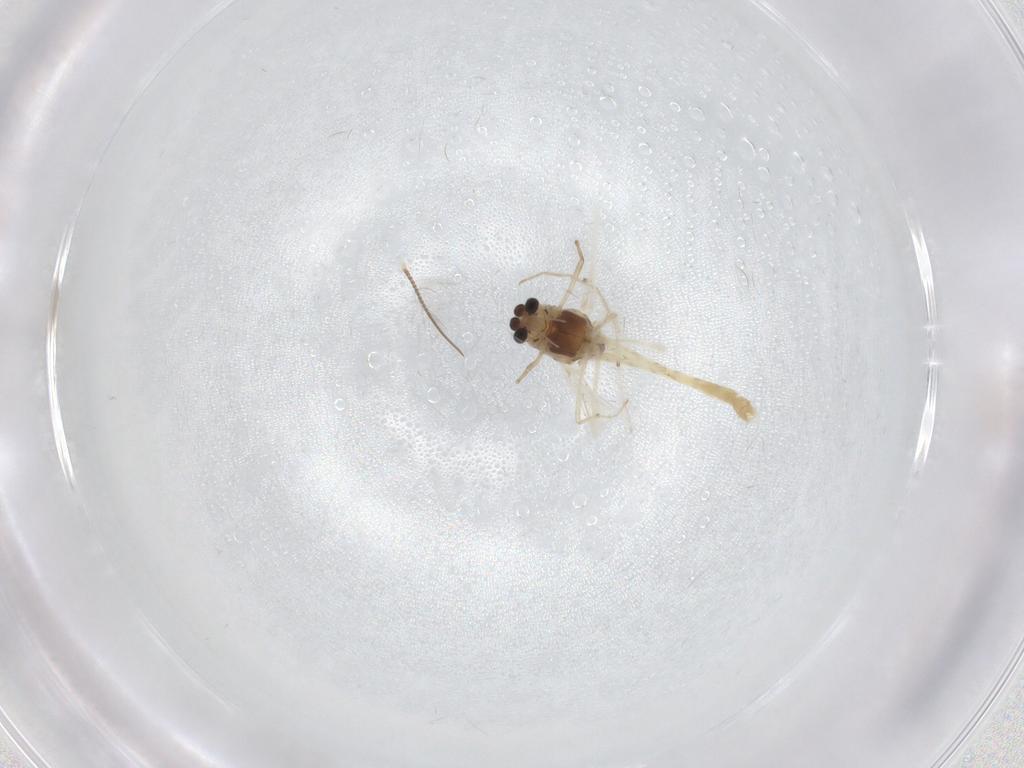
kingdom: Animalia
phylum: Arthropoda
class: Insecta
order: Diptera
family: Chironomidae
